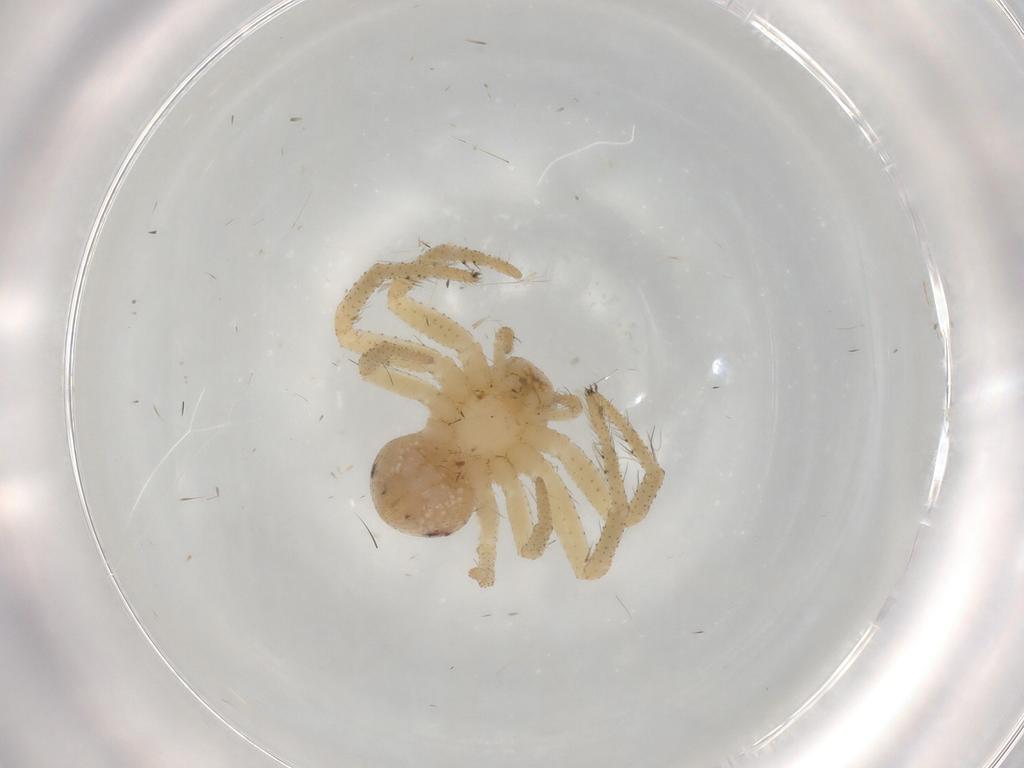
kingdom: Animalia
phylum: Arthropoda
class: Arachnida
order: Araneae
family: Thomisidae
